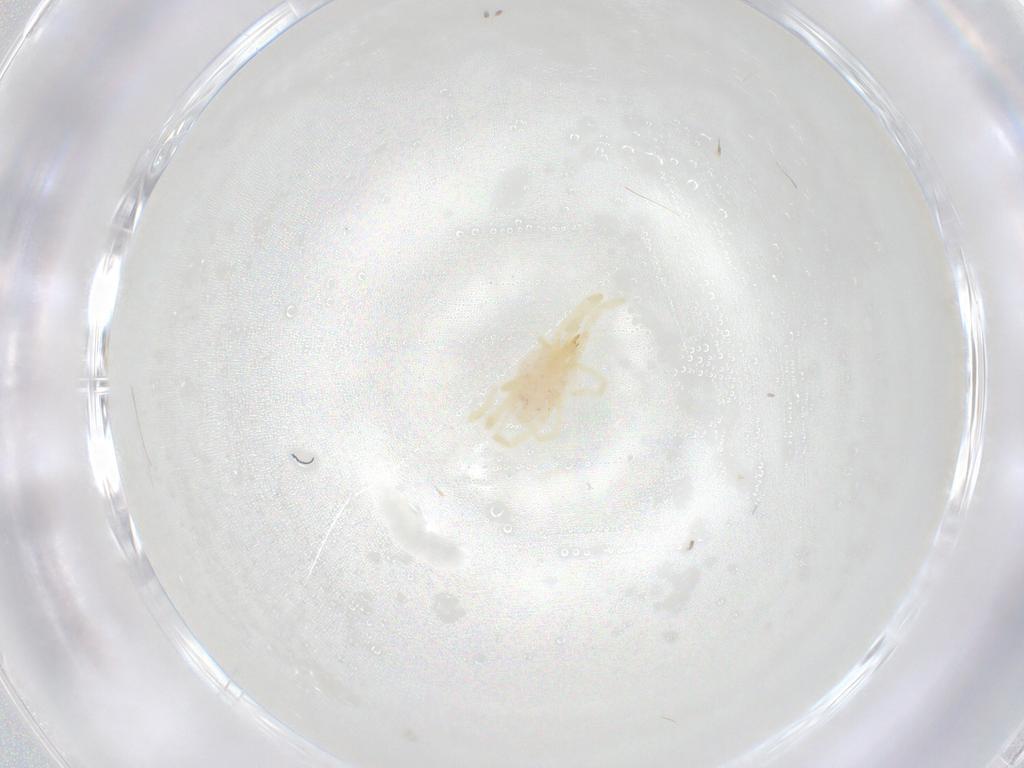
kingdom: Animalia
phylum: Arthropoda
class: Arachnida
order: Trombidiformes
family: Erythraeidae
